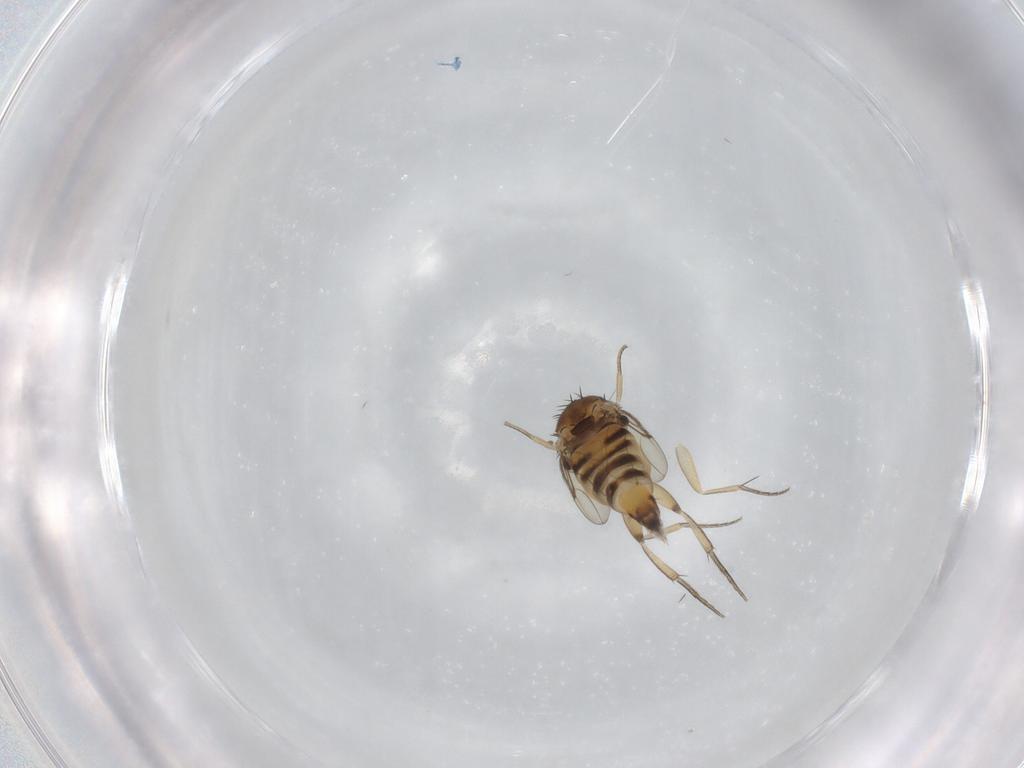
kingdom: Animalia
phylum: Arthropoda
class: Insecta
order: Diptera
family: Phoridae
